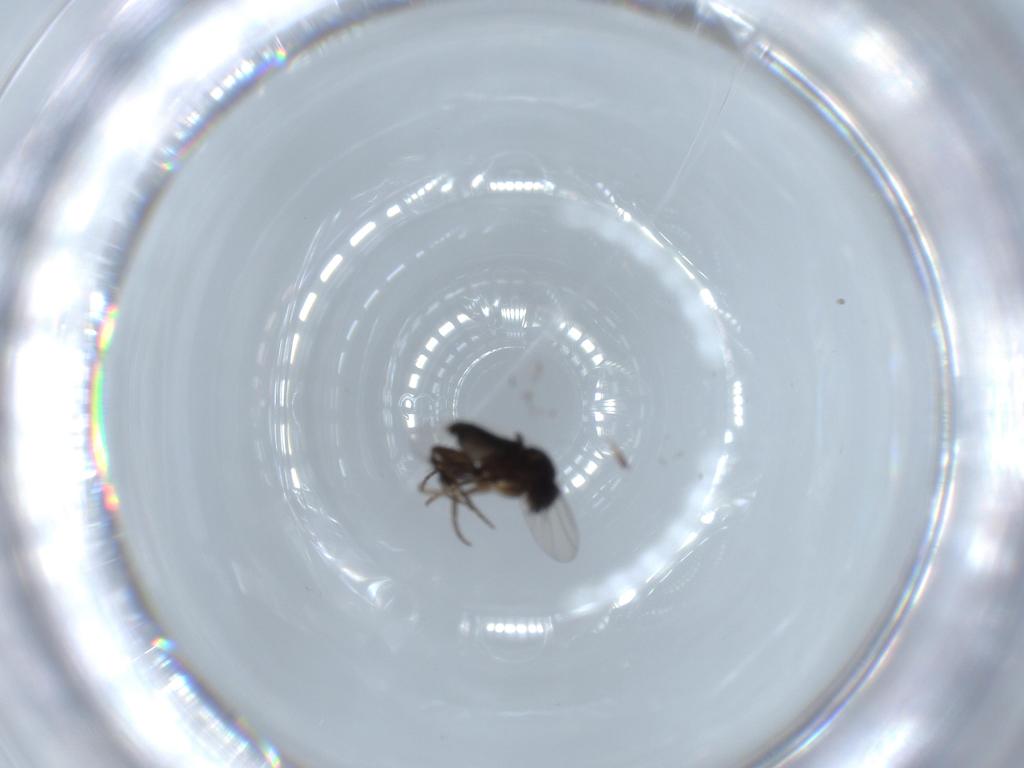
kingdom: Animalia
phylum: Arthropoda
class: Insecta
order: Diptera
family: Phoridae
